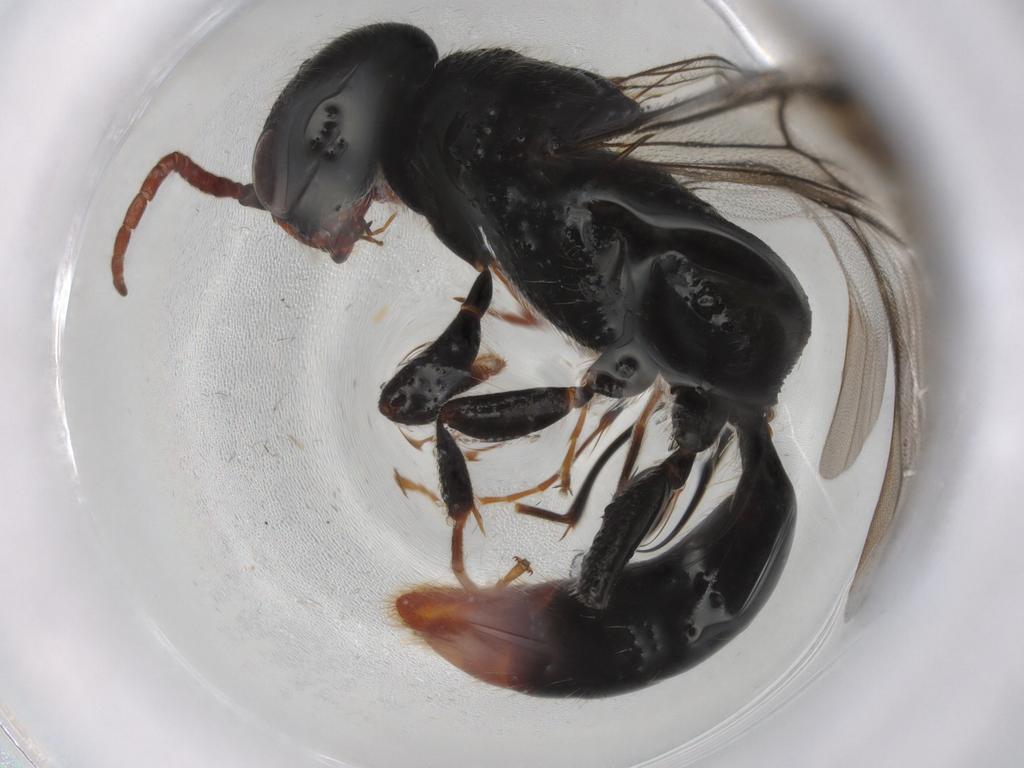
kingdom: Animalia
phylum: Arthropoda
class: Insecta
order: Hymenoptera
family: Bethylidae
